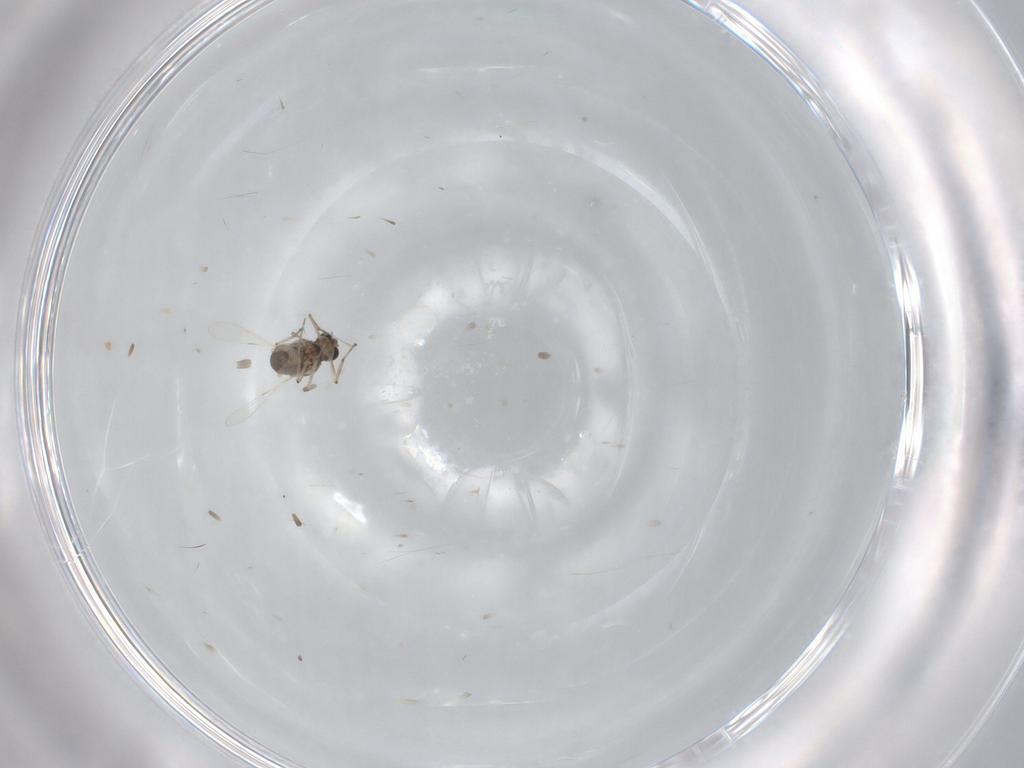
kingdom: Animalia
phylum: Arthropoda
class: Insecta
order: Diptera
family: Ceratopogonidae
